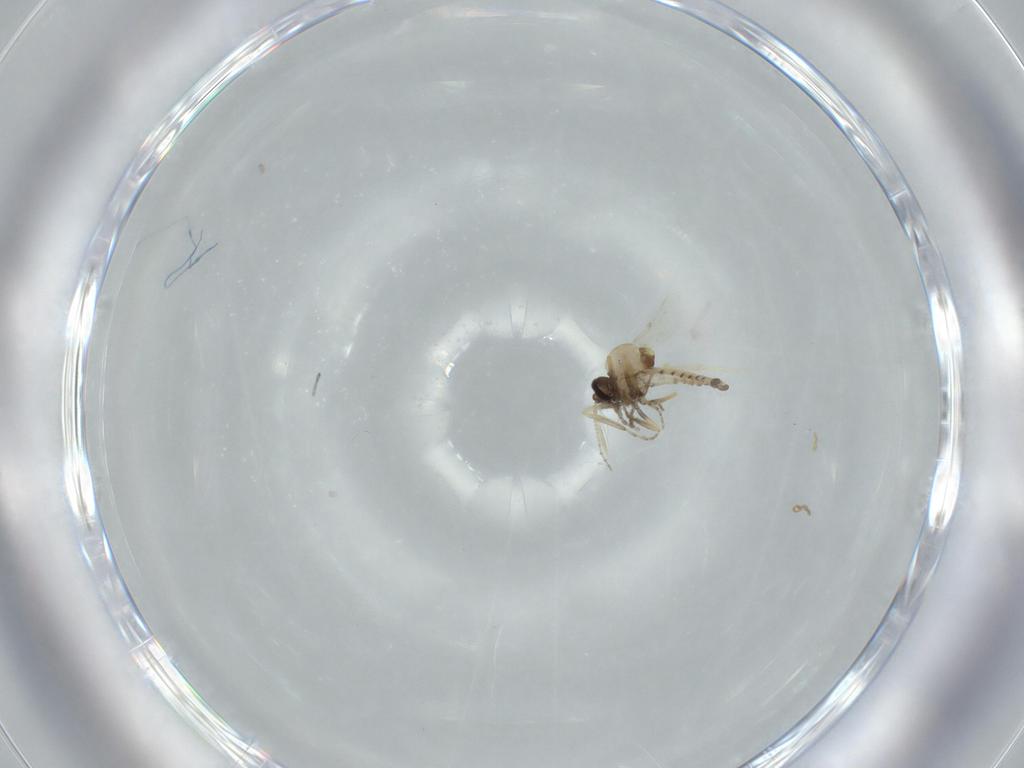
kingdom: Animalia
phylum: Arthropoda
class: Insecta
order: Diptera
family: Ceratopogonidae
